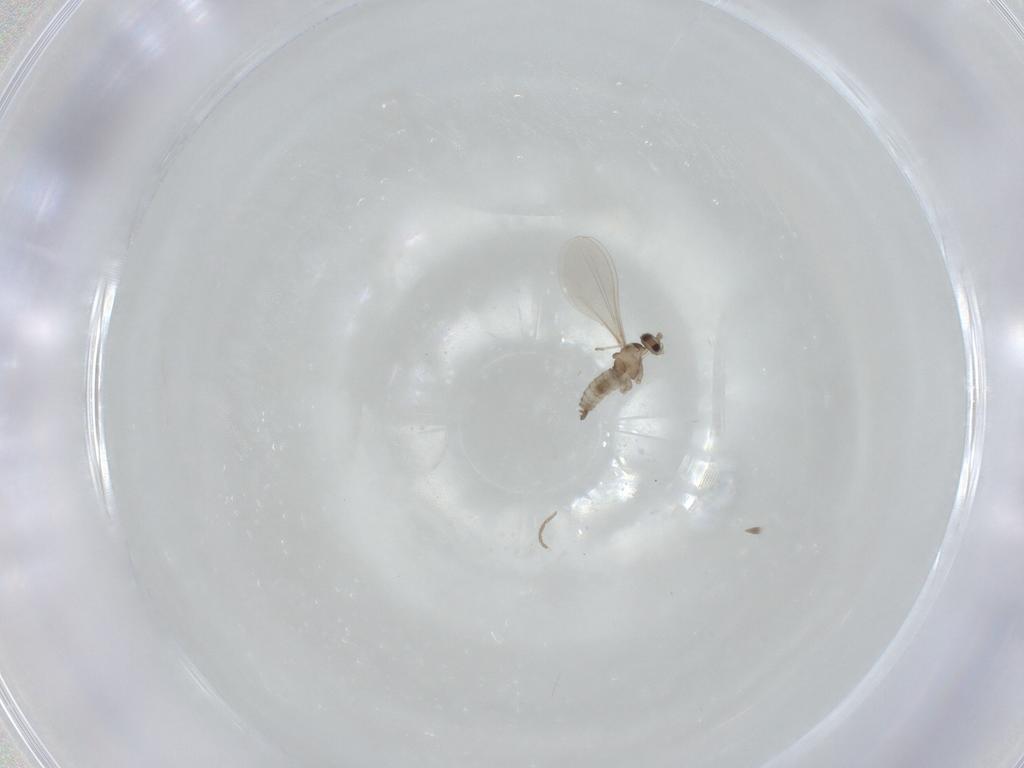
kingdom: Animalia
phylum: Arthropoda
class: Insecta
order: Diptera
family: Cecidomyiidae
